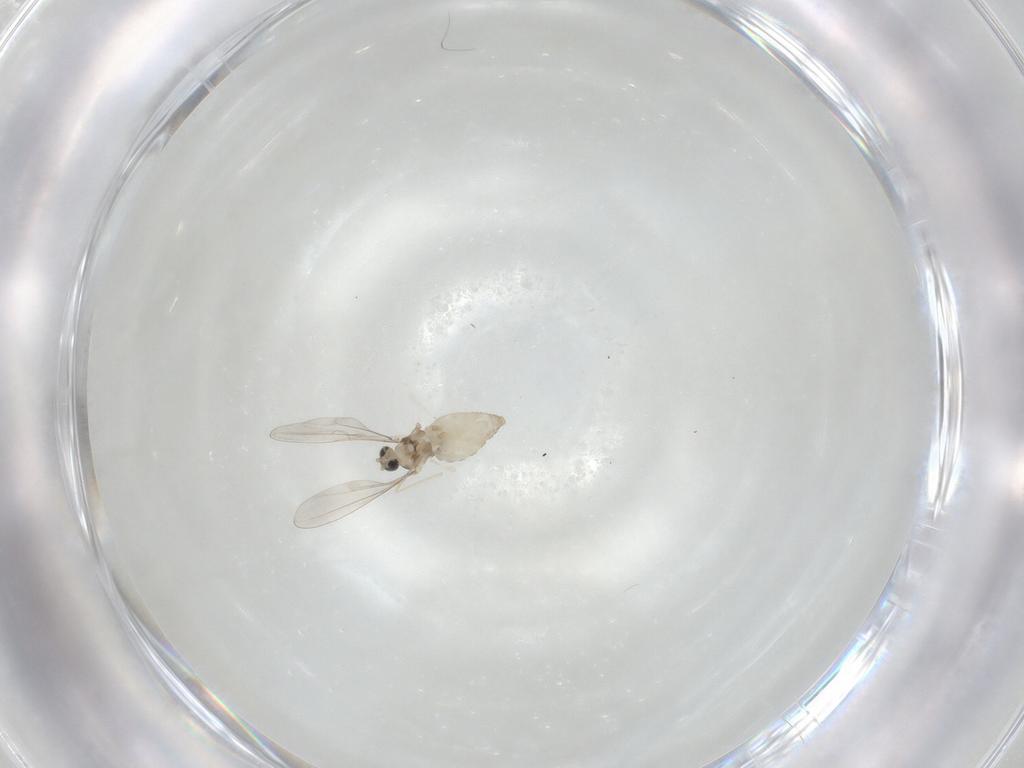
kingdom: Animalia
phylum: Arthropoda
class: Insecta
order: Diptera
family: Cecidomyiidae
